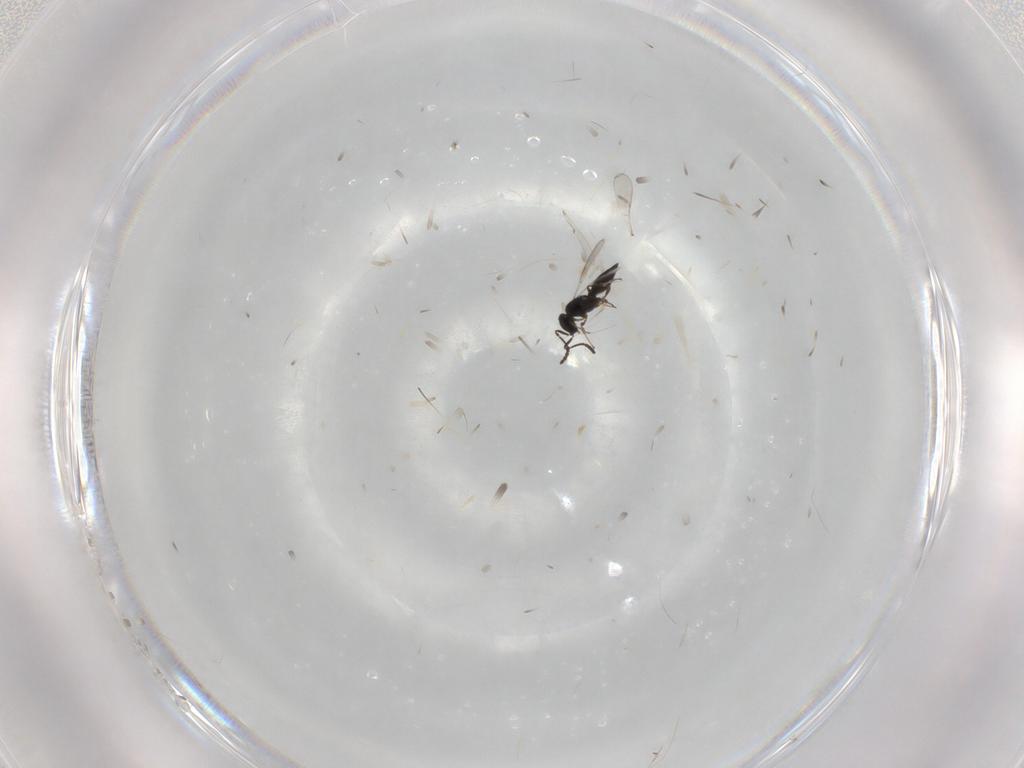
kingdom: Animalia
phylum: Arthropoda
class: Insecta
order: Hymenoptera
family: Scelionidae
